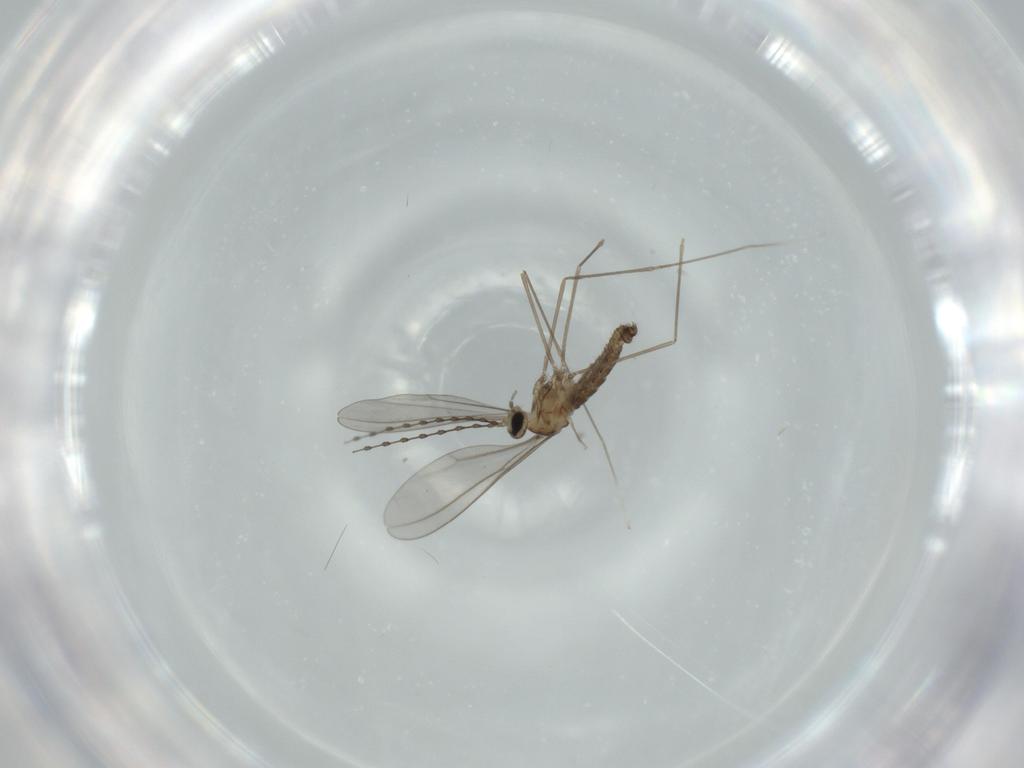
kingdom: Animalia
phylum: Arthropoda
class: Insecta
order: Diptera
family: Cecidomyiidae
